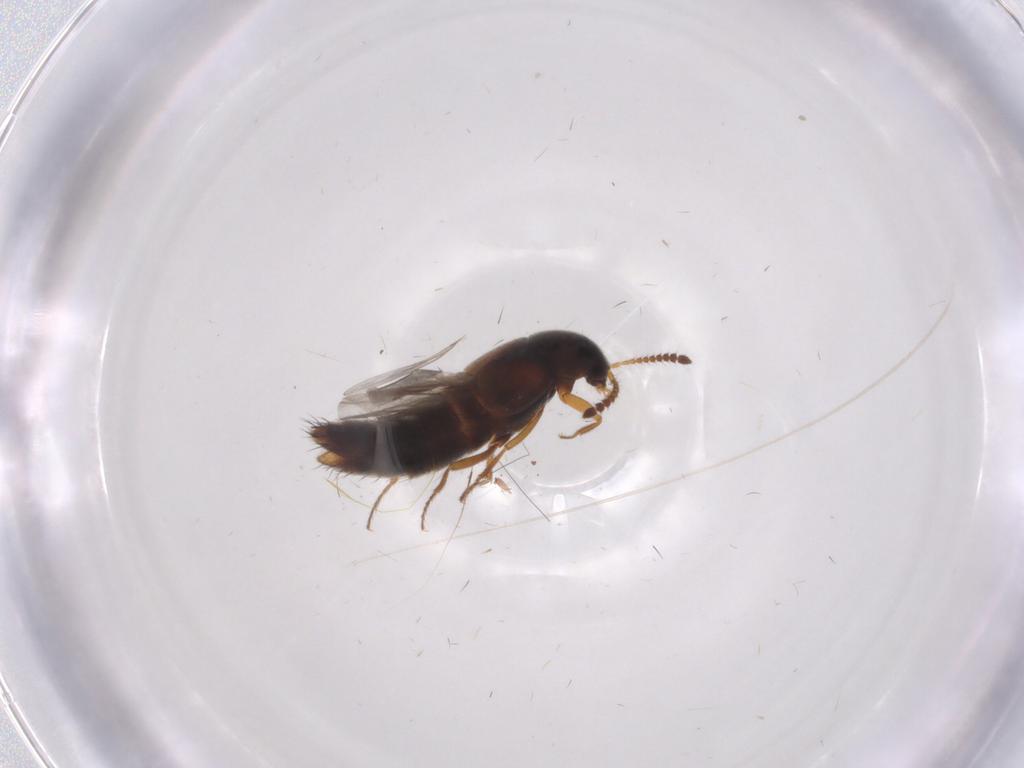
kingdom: Animalia
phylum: Arthropoda
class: Insecta
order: Coleoptera
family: Staphylinidae
